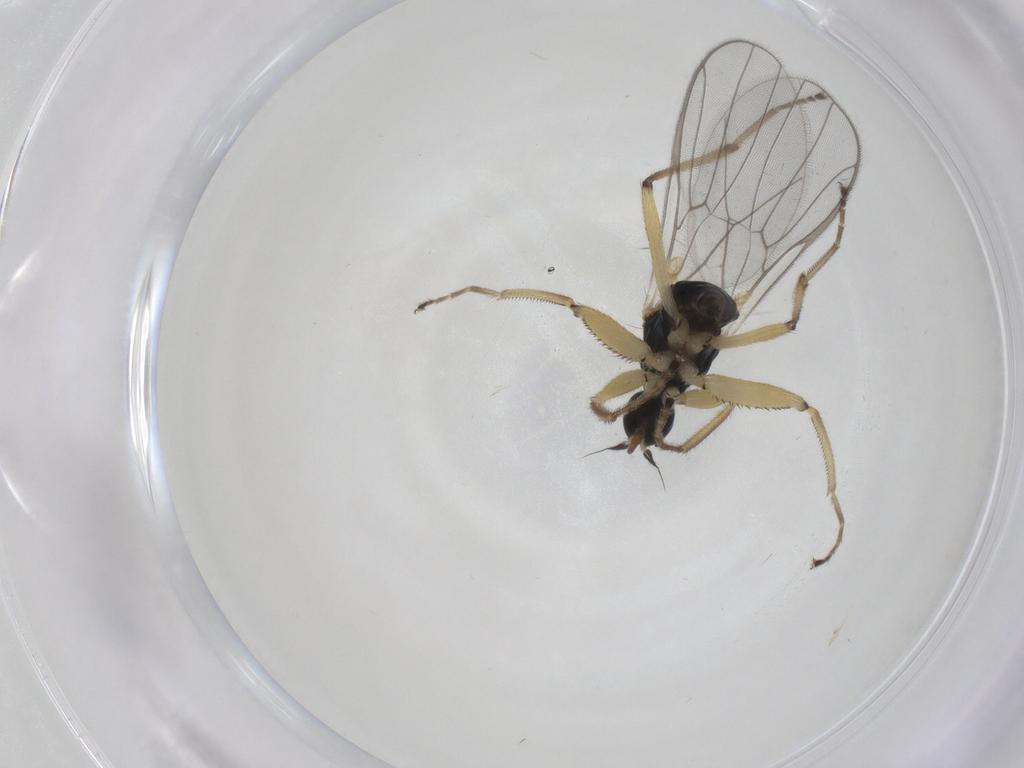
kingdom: Animalia
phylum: Arthropoda
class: Insecta
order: Diptera
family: Hybotidae
